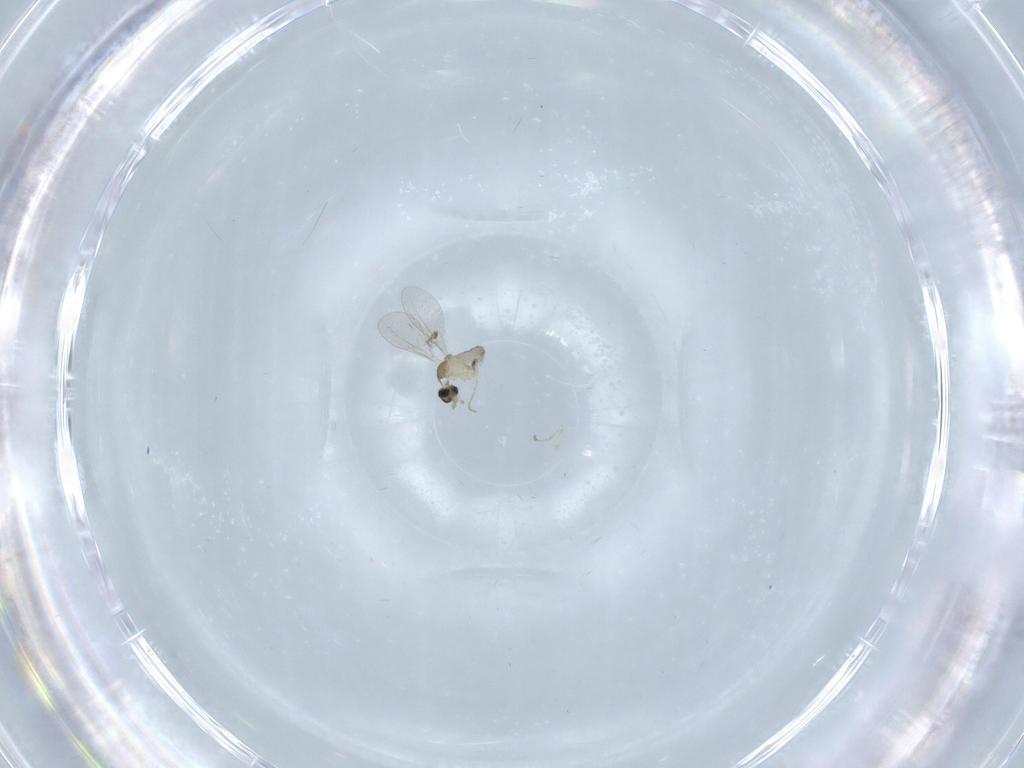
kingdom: Animalia
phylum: Arthropoda
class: Insecta
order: Diptera
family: Cecidomyiidae
